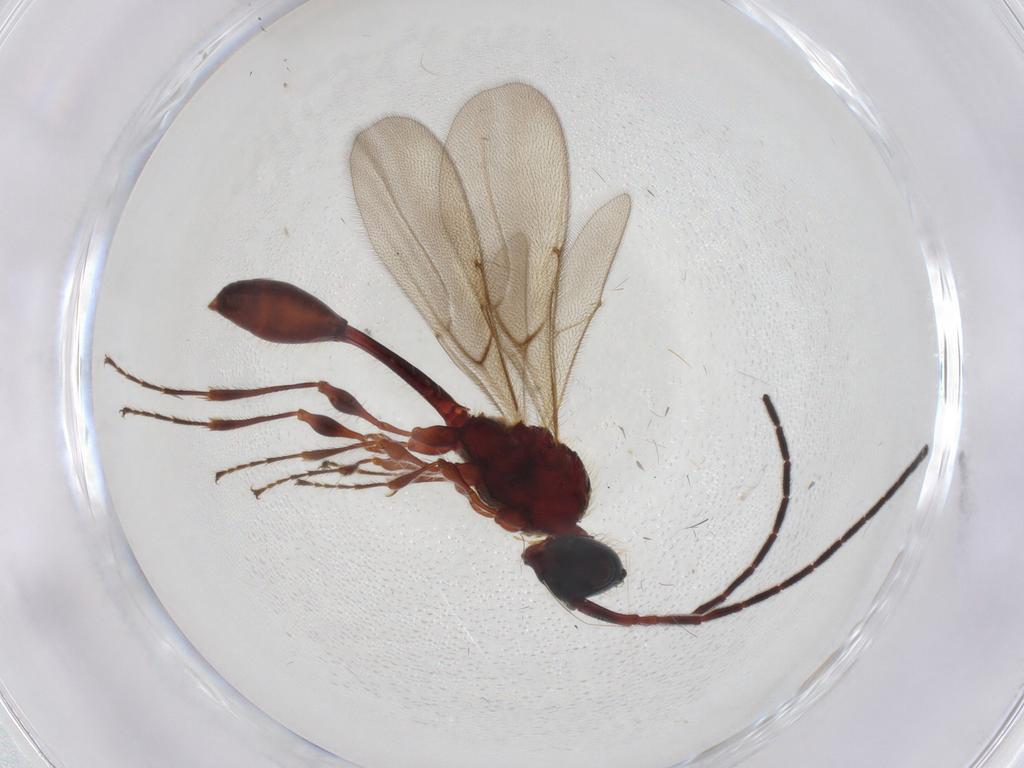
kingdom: Animalia
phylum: Arthropoda
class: Insecta
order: Hymenoptera
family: Diapriidae
